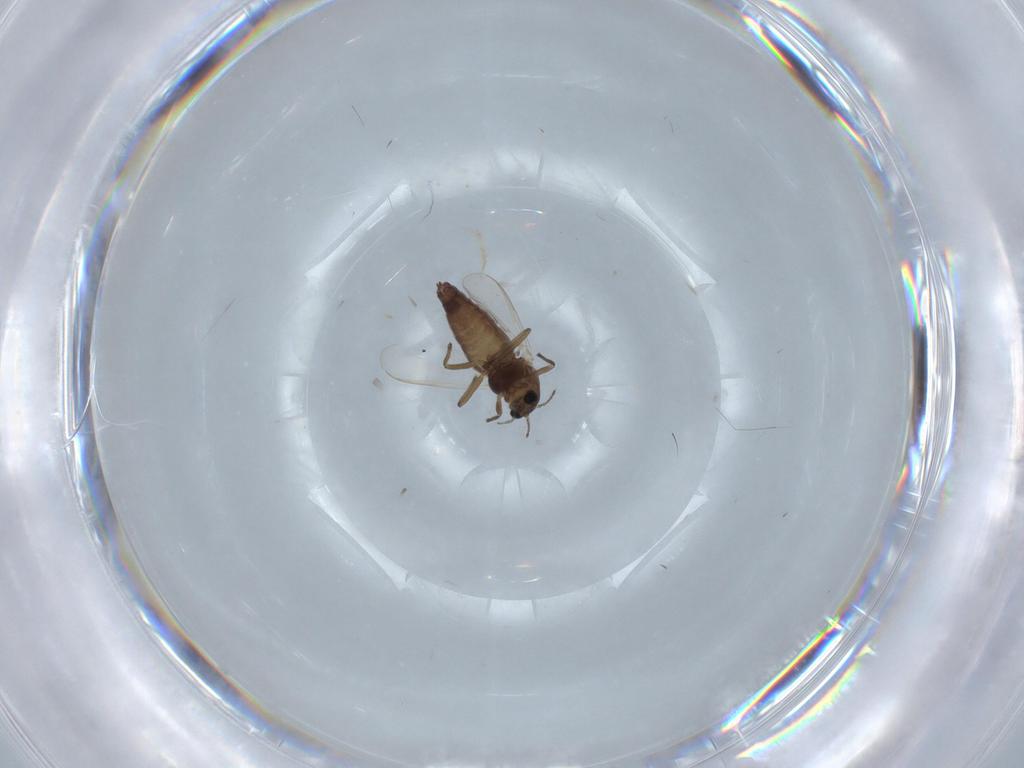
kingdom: Animalia
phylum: Arthropoda
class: Insecta
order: Diptera
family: Chironomidae
